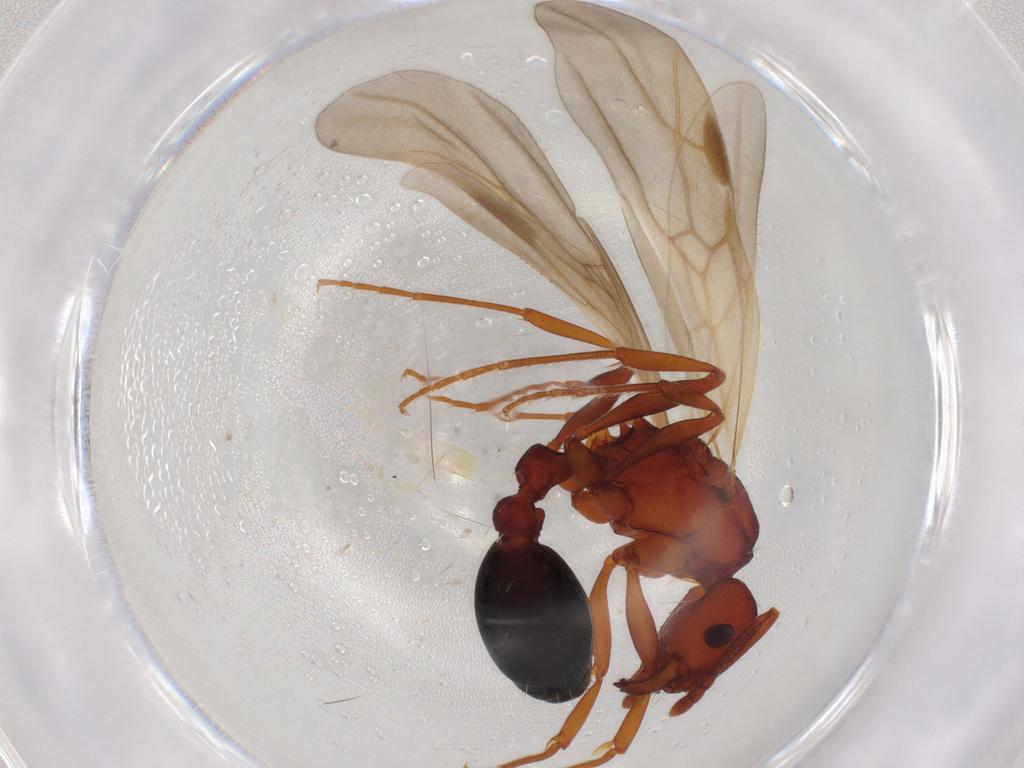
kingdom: Animalia
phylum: Arthropoda
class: Insecta
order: Hymenoptera
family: Formicidae
